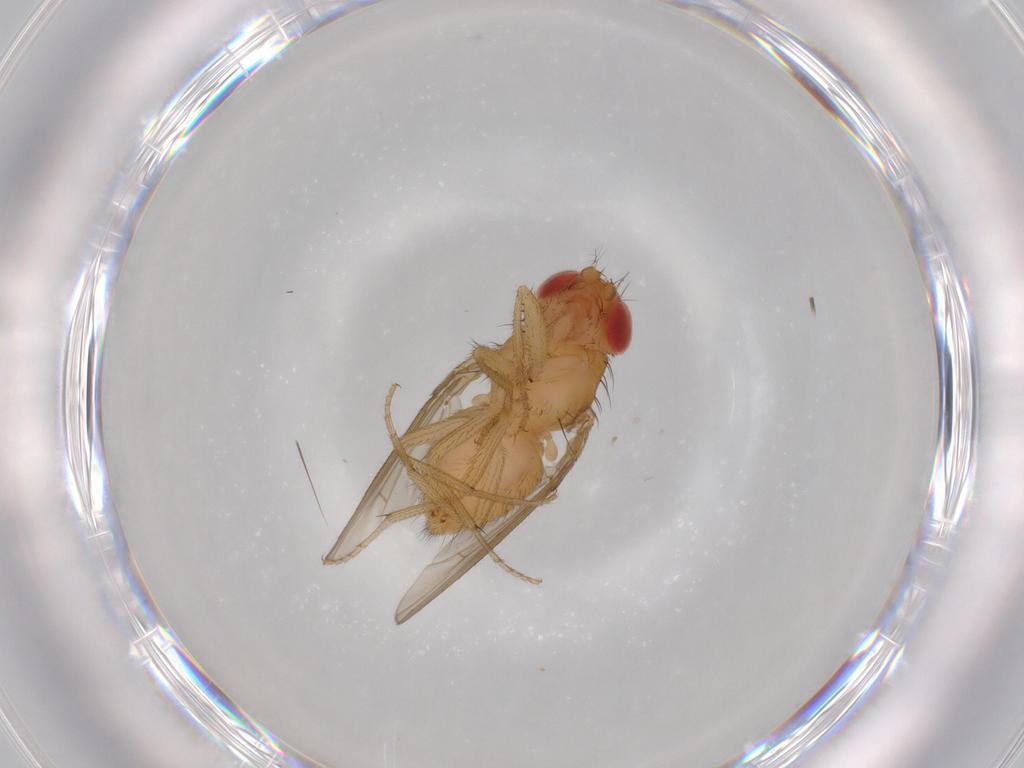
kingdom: Animalia
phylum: Arthropoda
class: Insecta
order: Diptera
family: Drosophilidae
